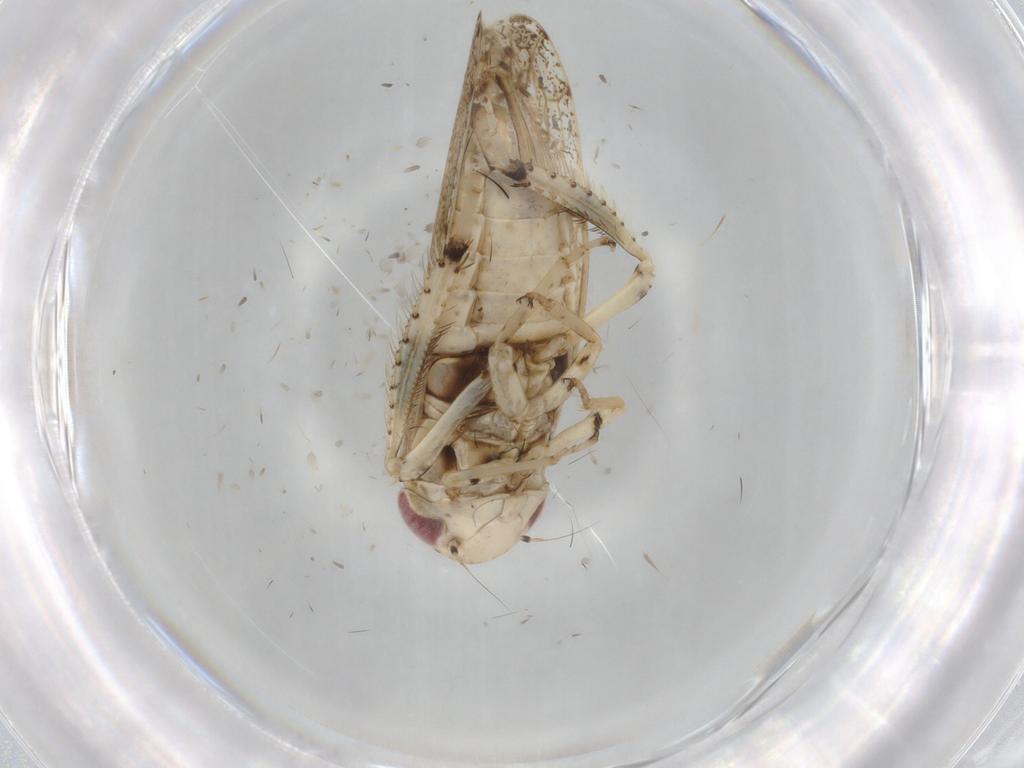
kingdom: Animalia
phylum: Arthropoda
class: Insecta
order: Hemiptera
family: Cicadellidae
